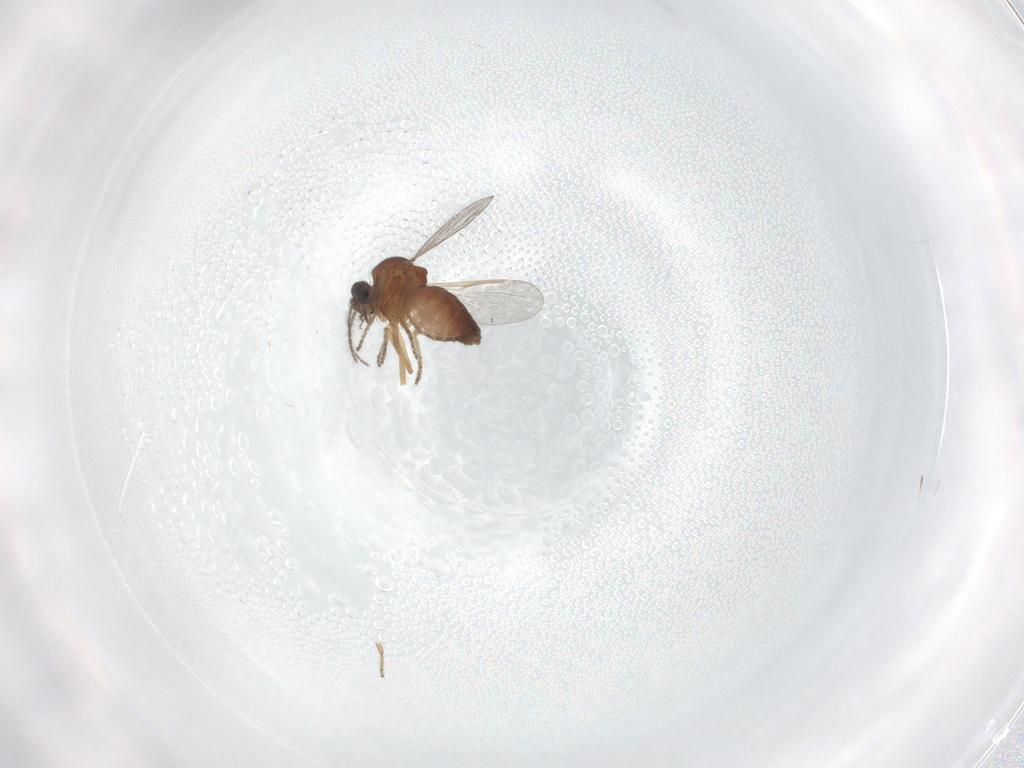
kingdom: Animalia
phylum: Arthropoda
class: Insecta
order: Diptera
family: Ceratopogonidae
